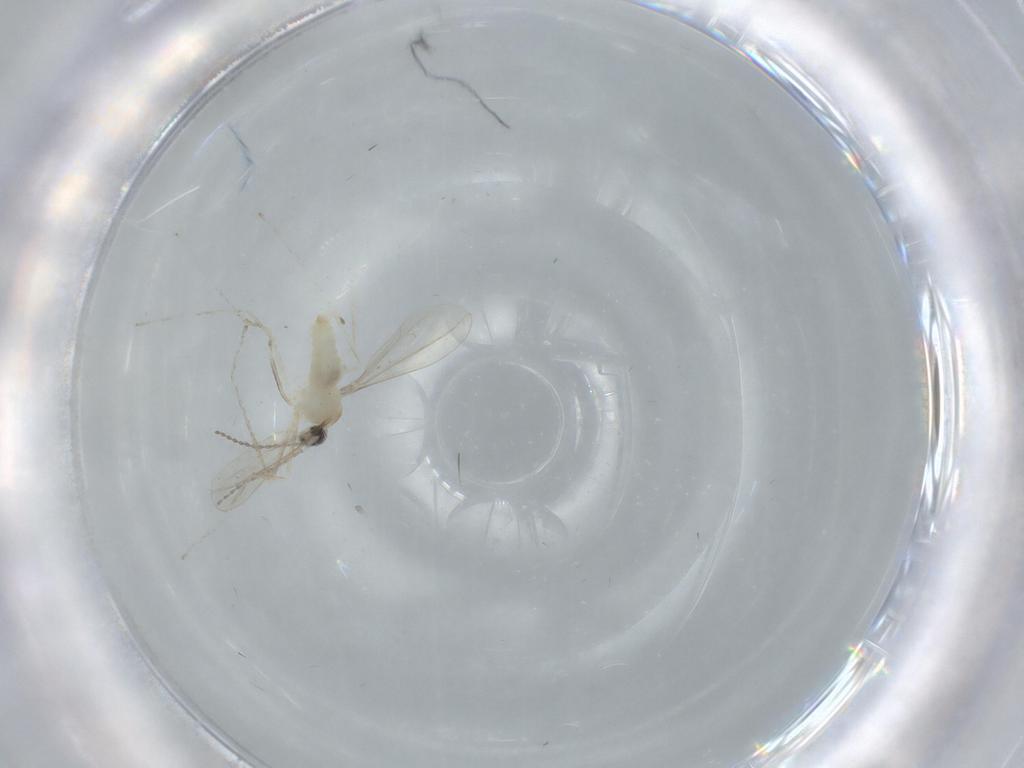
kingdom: Animalia
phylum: Arthropoda
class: Insecta
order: Diptera
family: Cecidomyiidae
